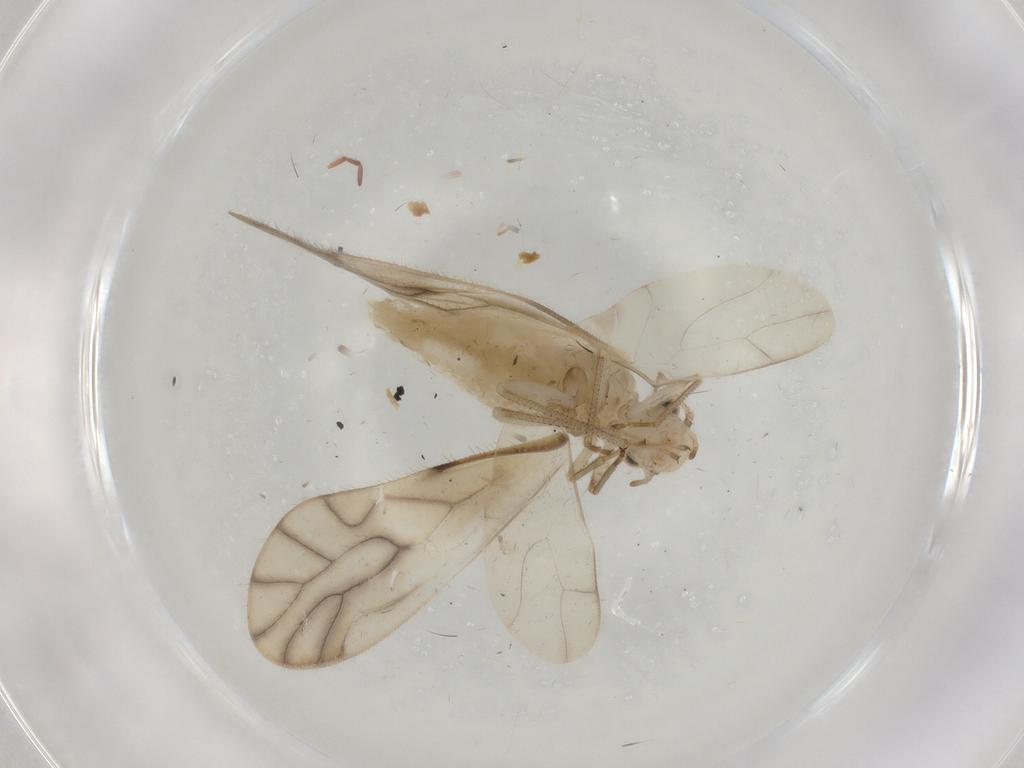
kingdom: Animalia
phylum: Arthropoda
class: Insecta
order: Psocodea
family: Caeciliusidae
